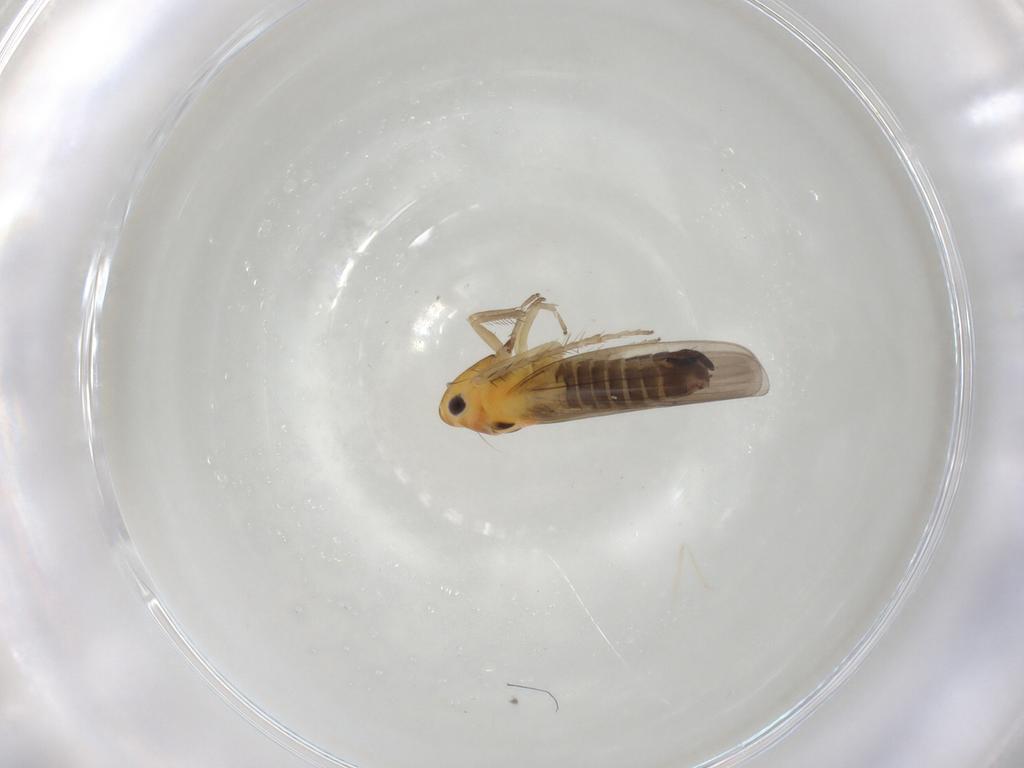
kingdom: Animalia
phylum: Arthropoda
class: Insecta
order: Hemiptera
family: Cicadellidae
